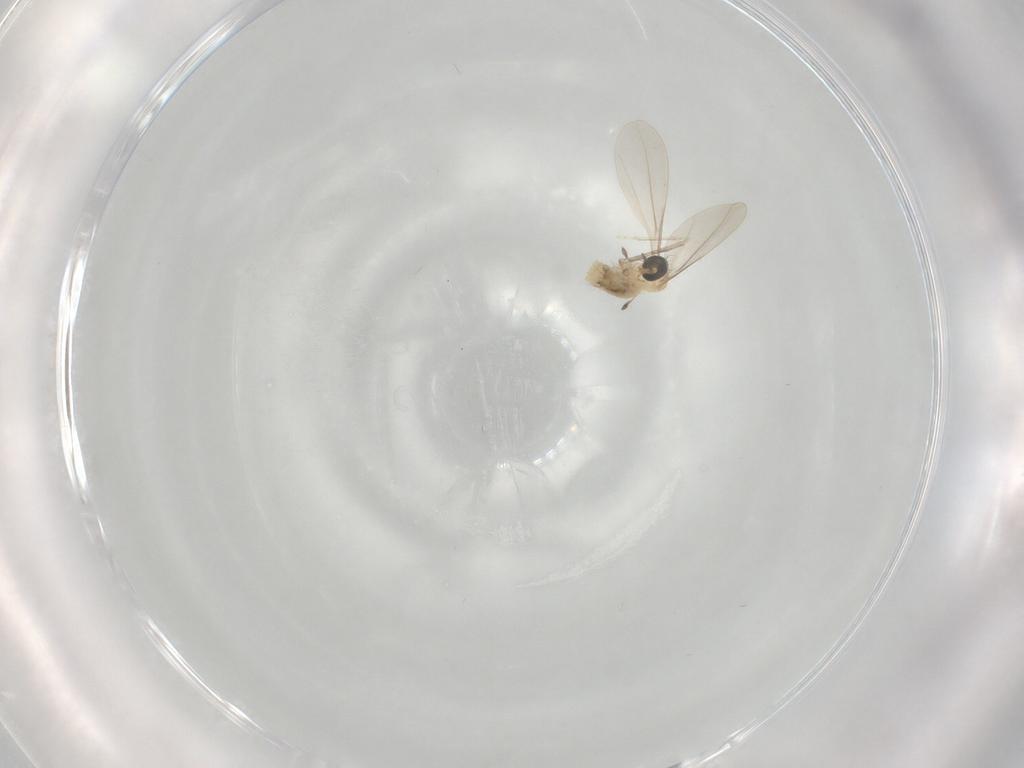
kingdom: Animalia
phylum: Arthropoda
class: Insecta
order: Diptera
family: Cecidomyiidae
